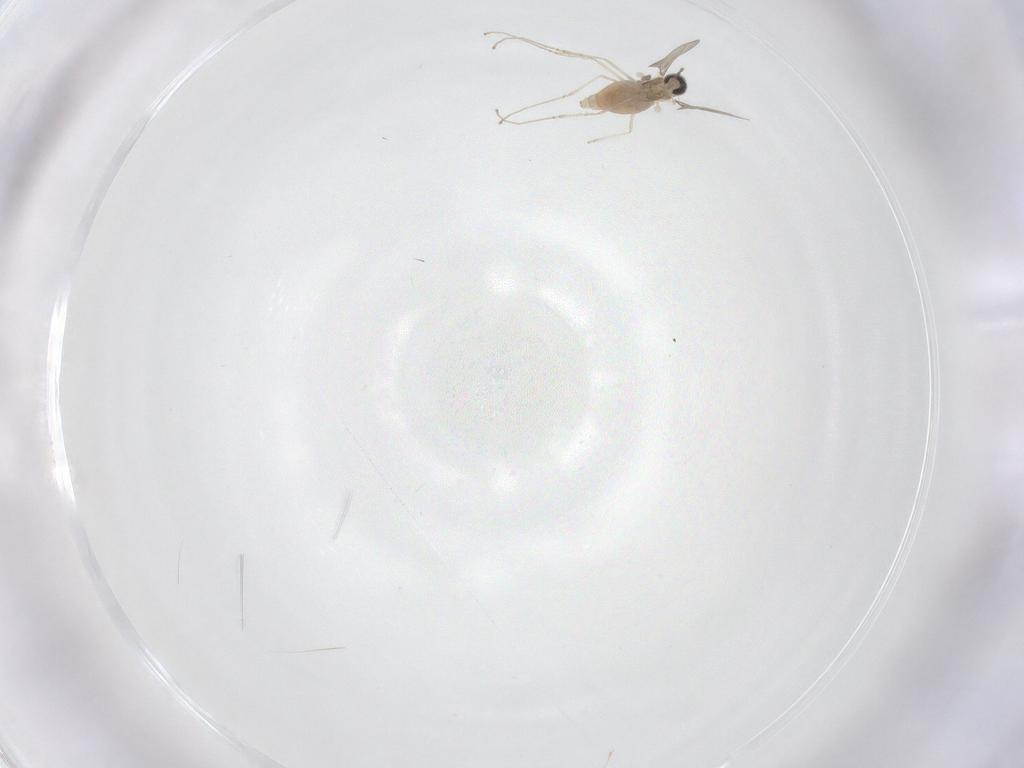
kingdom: Animalia
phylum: Arthropoda
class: Insecta
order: Diptera
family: Cecidomyiidae
